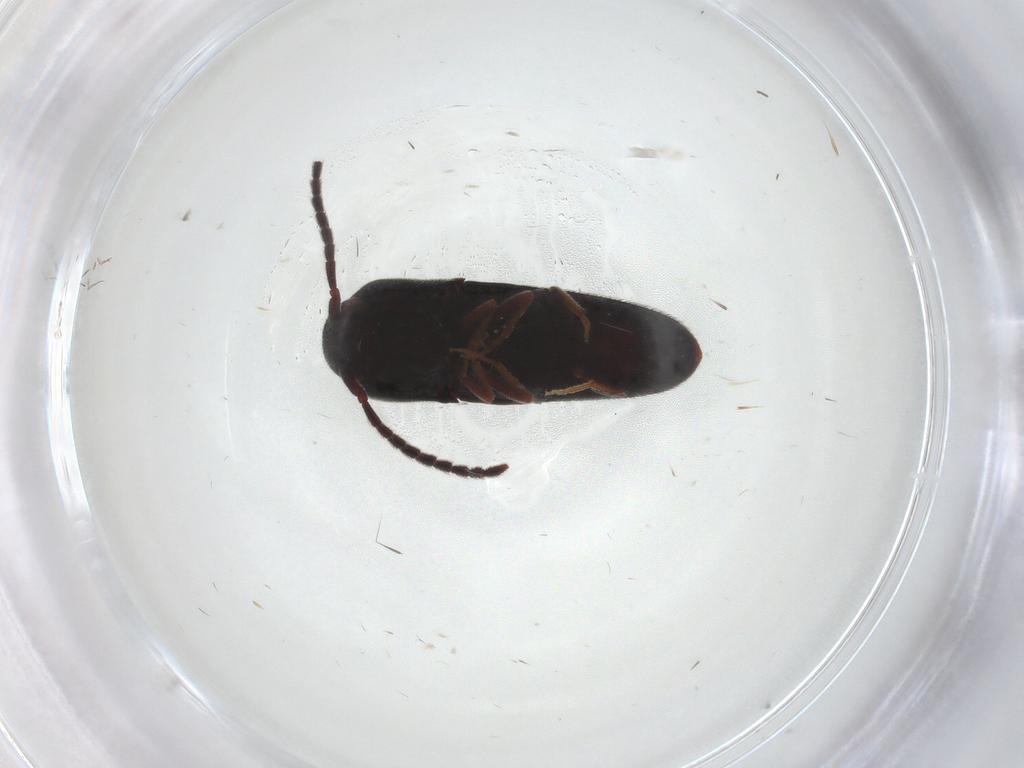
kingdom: Animalia
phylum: Arthropoda
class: Insecta
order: Coleoptera
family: Eucnemidae
